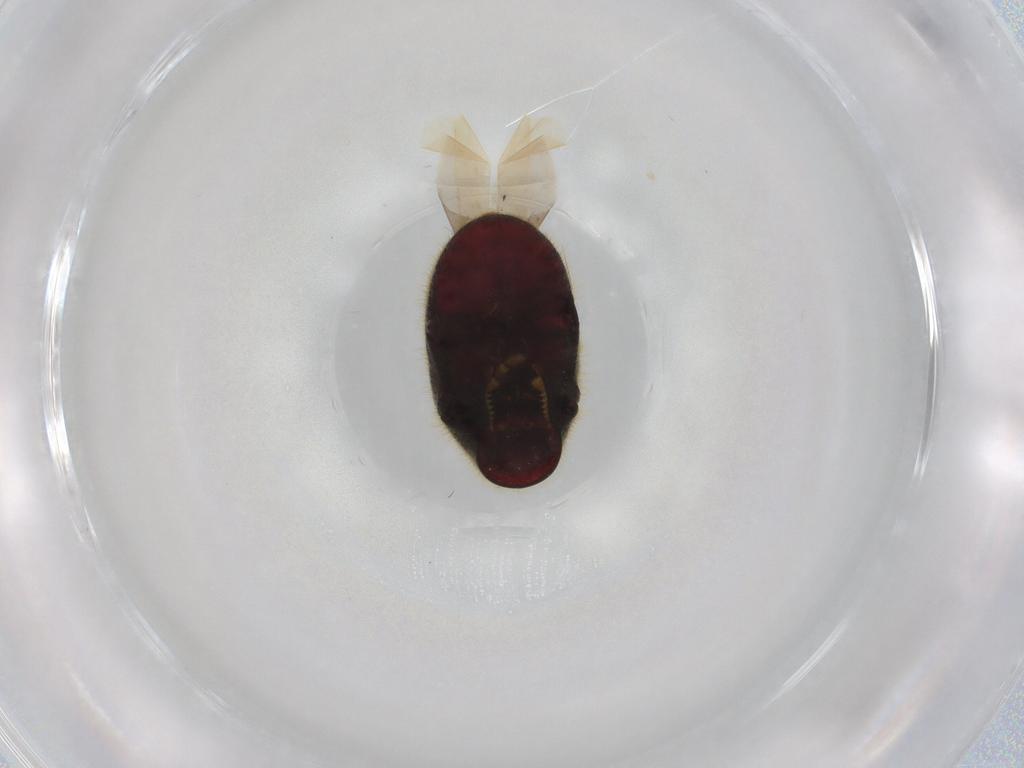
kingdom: Animalia
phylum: Arthropoda
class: Insecta
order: Coleoptera
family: Ptinidae
